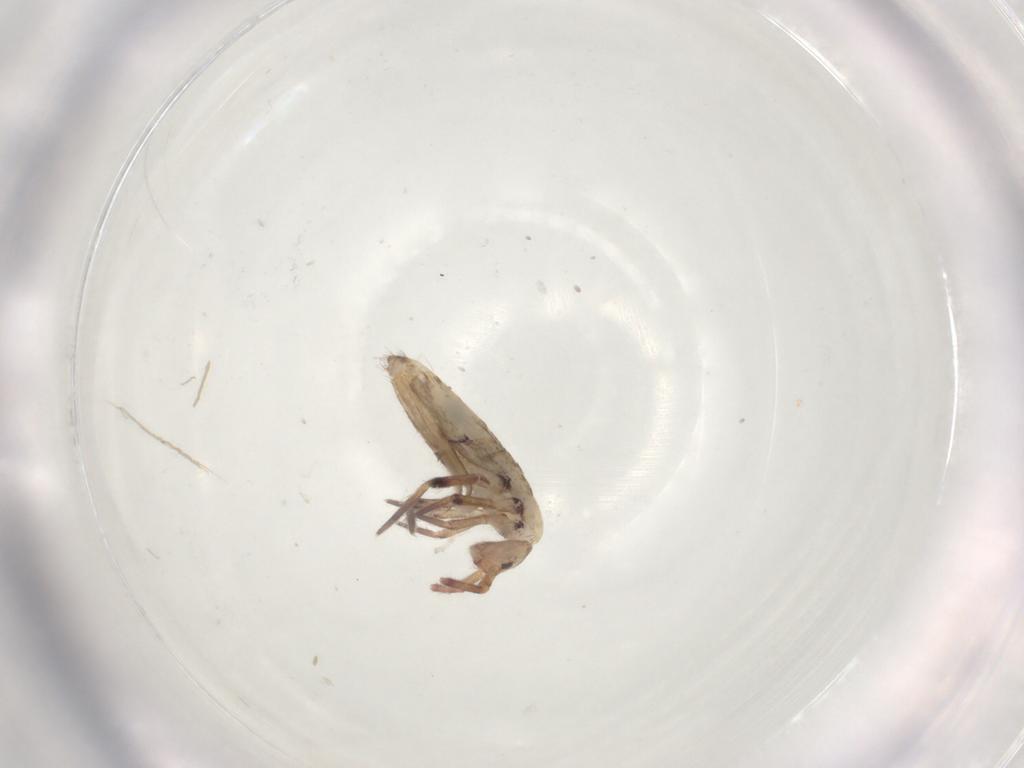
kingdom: Animalia
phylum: Arthropoda
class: Collembola
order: Entomobryomorpha
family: Entomobryidae
